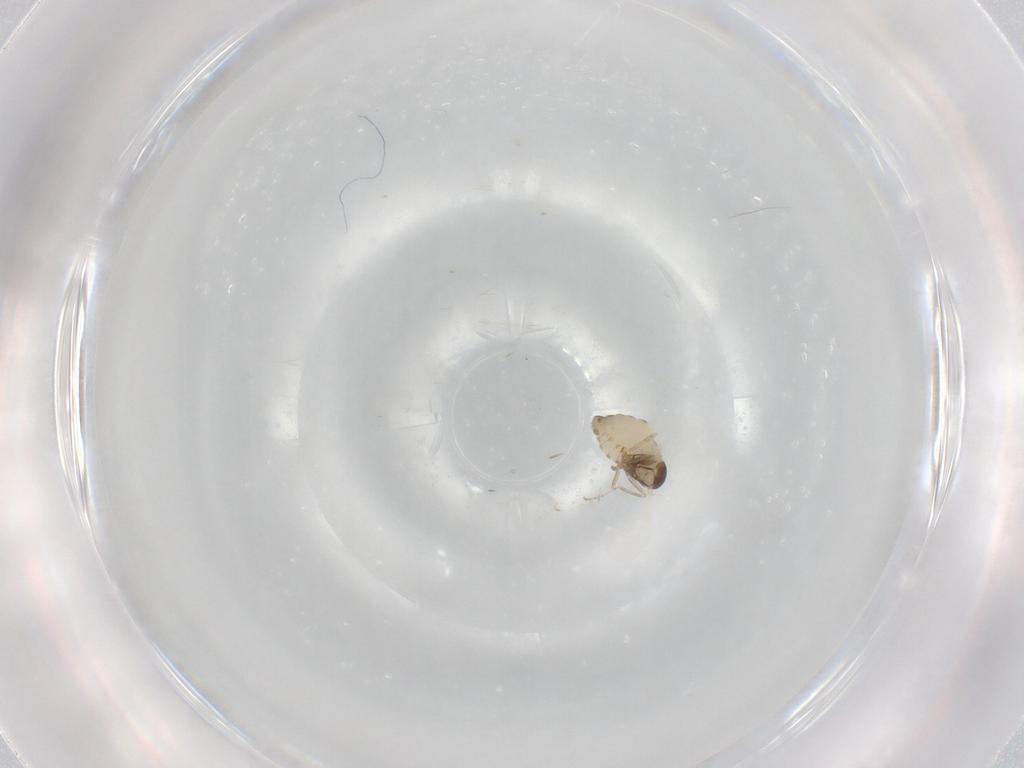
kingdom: Animalia
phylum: Arthropoda
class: Insecta
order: Diptera
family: Cecidomyiidae
